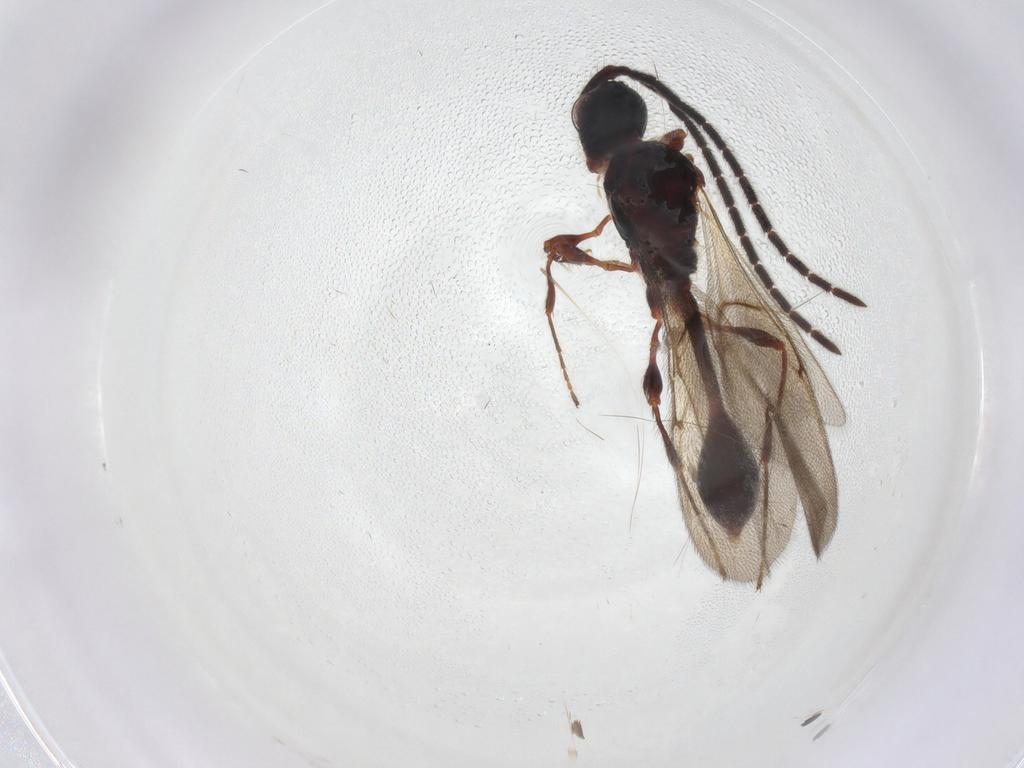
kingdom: Animalia
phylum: Arthropoda
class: Insecta
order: Hymenoptera
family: Diapriidae
